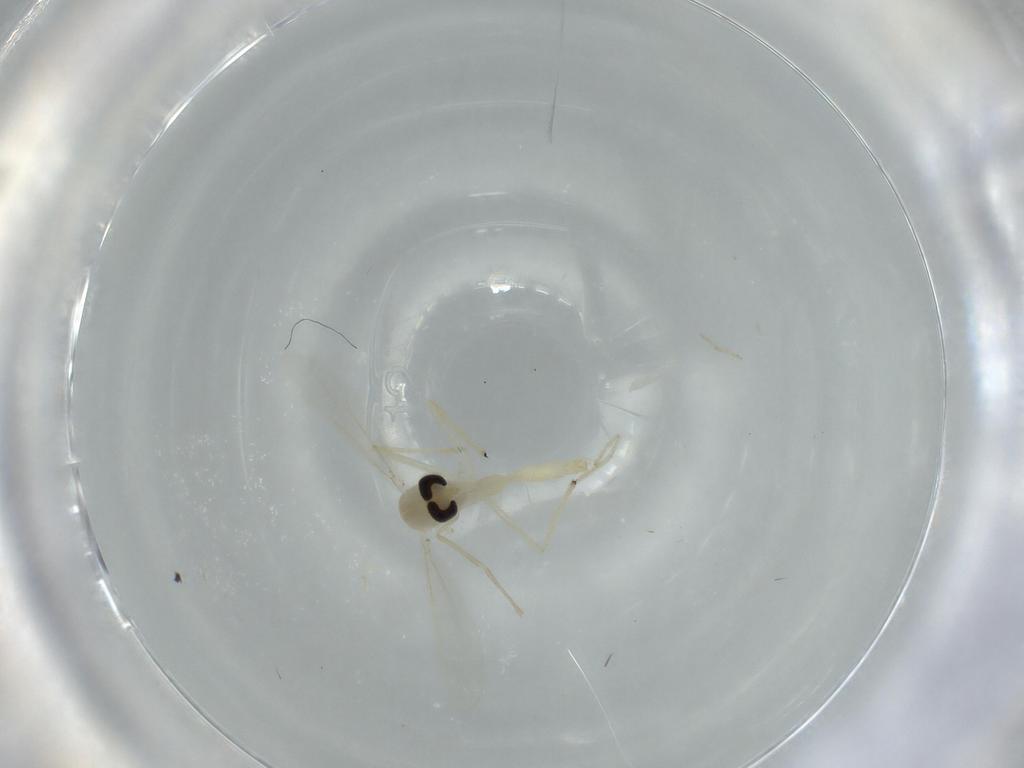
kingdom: Animalia
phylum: Arthropoda
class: Insecta
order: Diptera
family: Chironomidae
